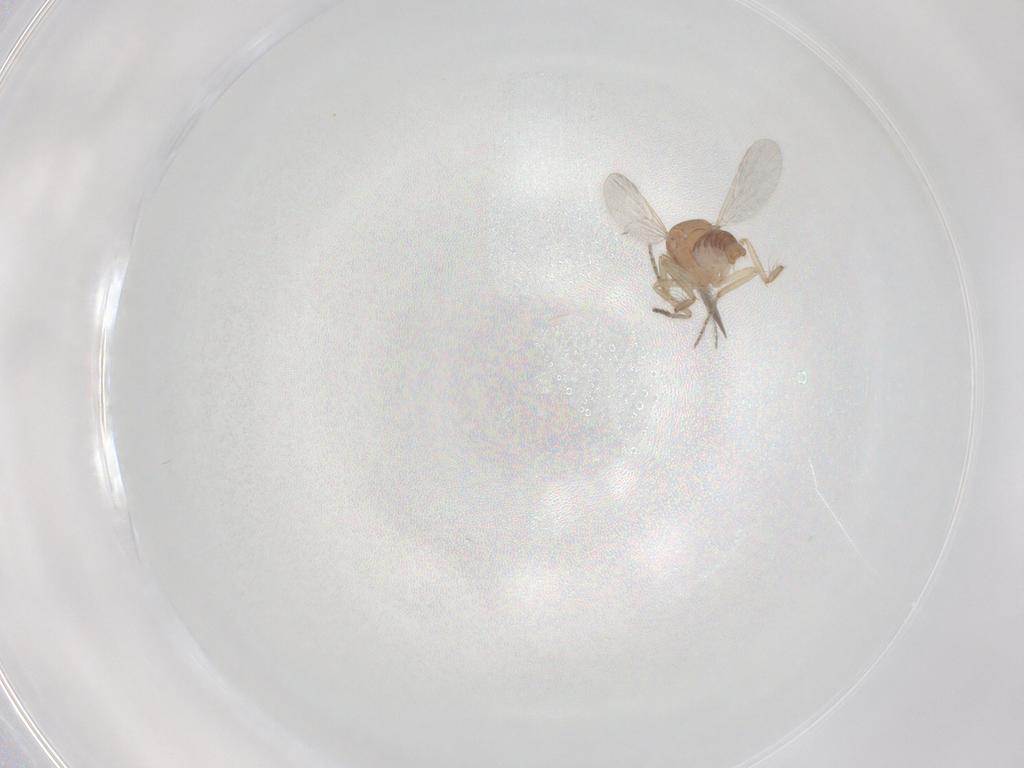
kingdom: Animalia
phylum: Arthropoda
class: Insecta
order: Diptera
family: Ceratopogonidae
